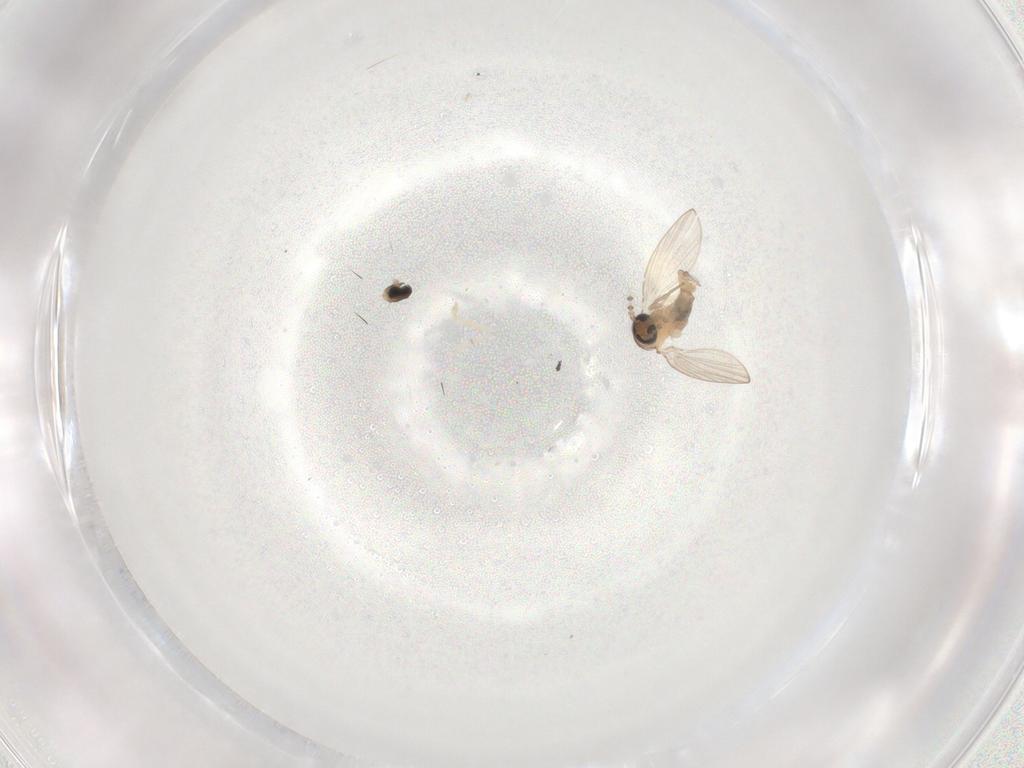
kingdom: Animalia
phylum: Arthropoda
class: Insecta
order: Diptera
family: Psychodidae
